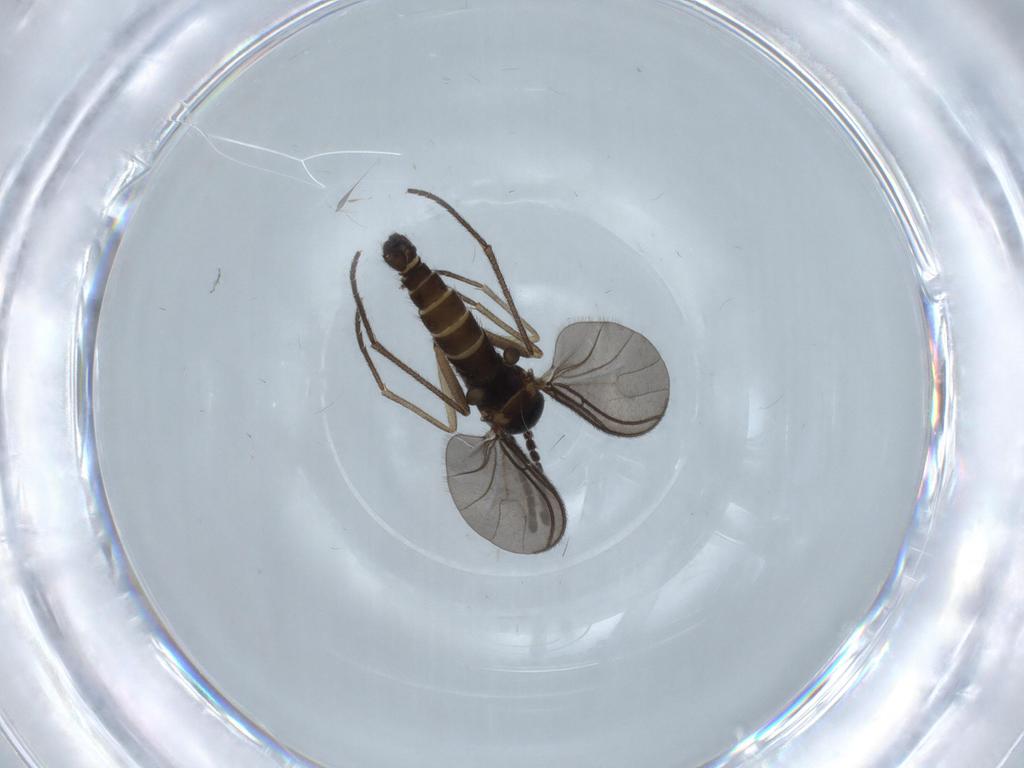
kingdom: Animalia
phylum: Arthropoda
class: Insecta
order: Diptera
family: Sciaridae
